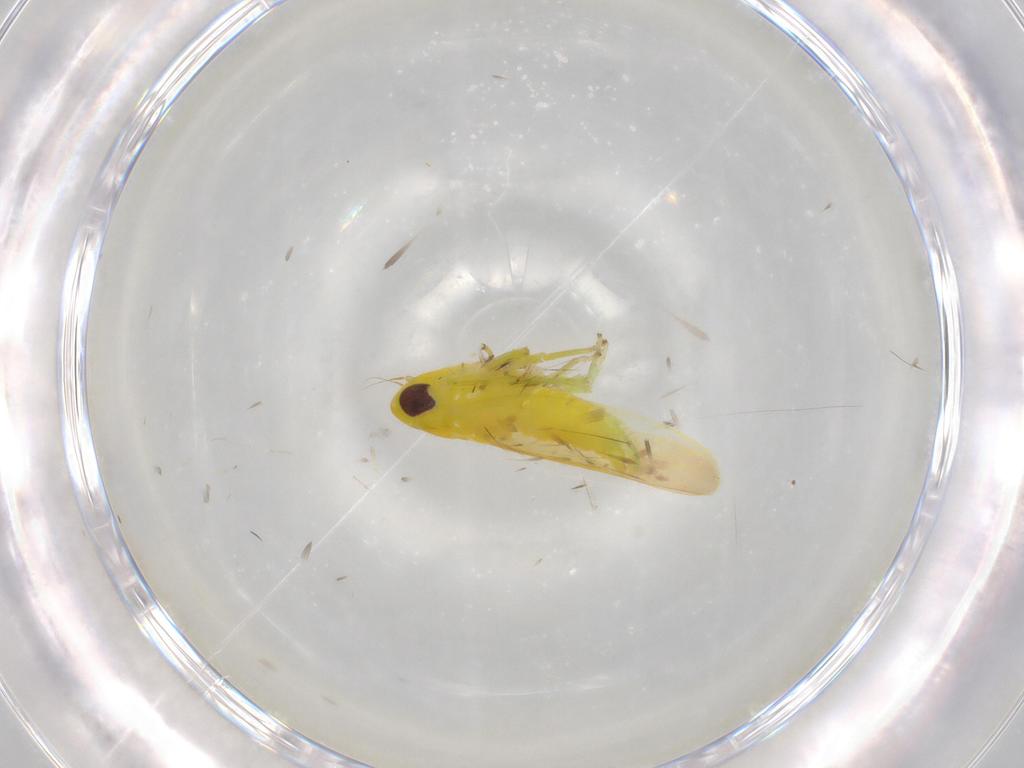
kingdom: Animalia
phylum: Arthropoda
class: Insecta
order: Hemiptera
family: Cicadellidae
